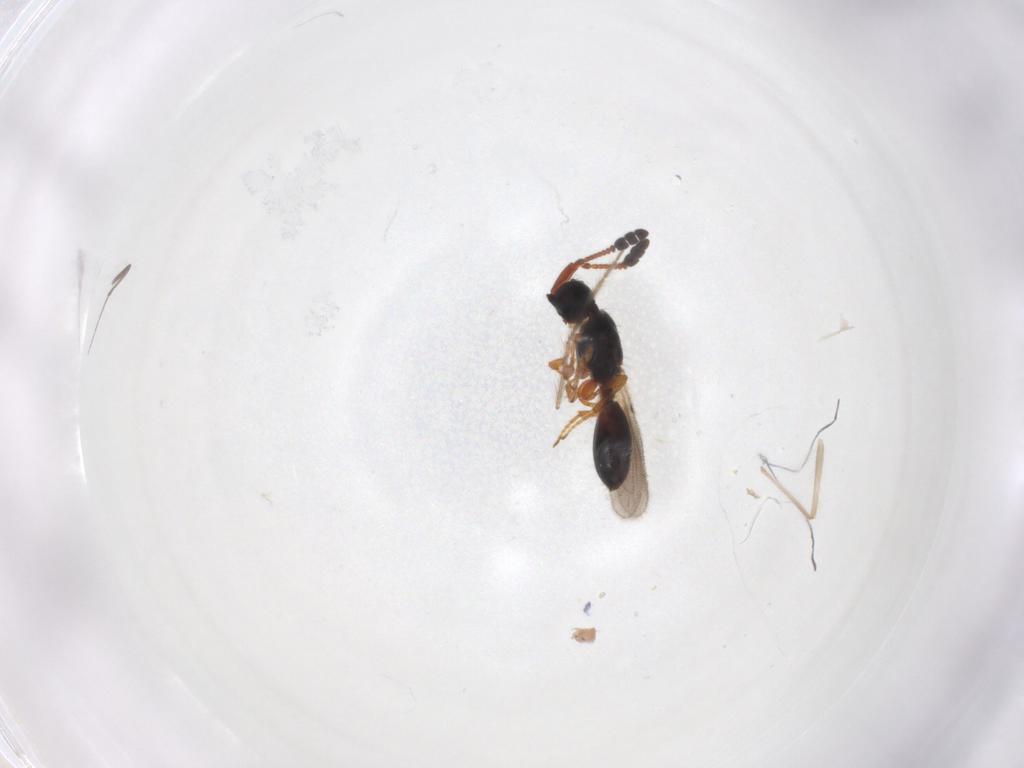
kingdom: Animalia
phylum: Arthropoda
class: Insecta
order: Hymenoptera
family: Diapriidae
